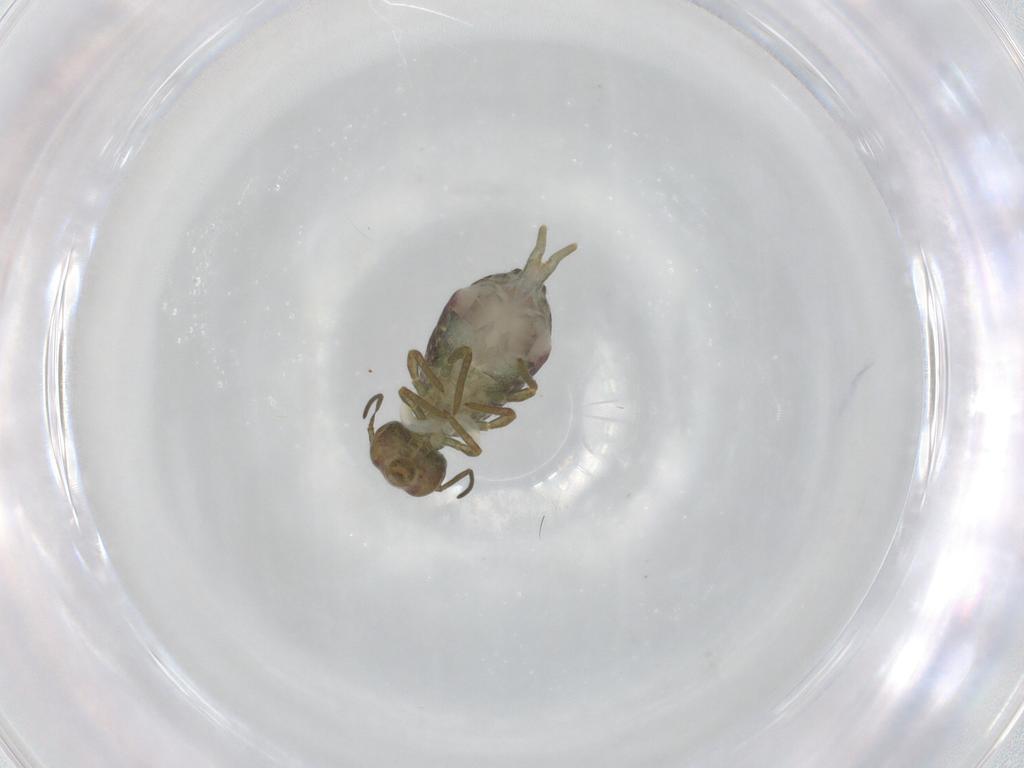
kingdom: Animalia
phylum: Arthropoda
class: Collembola
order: Symphypleona
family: Sminthuridae
